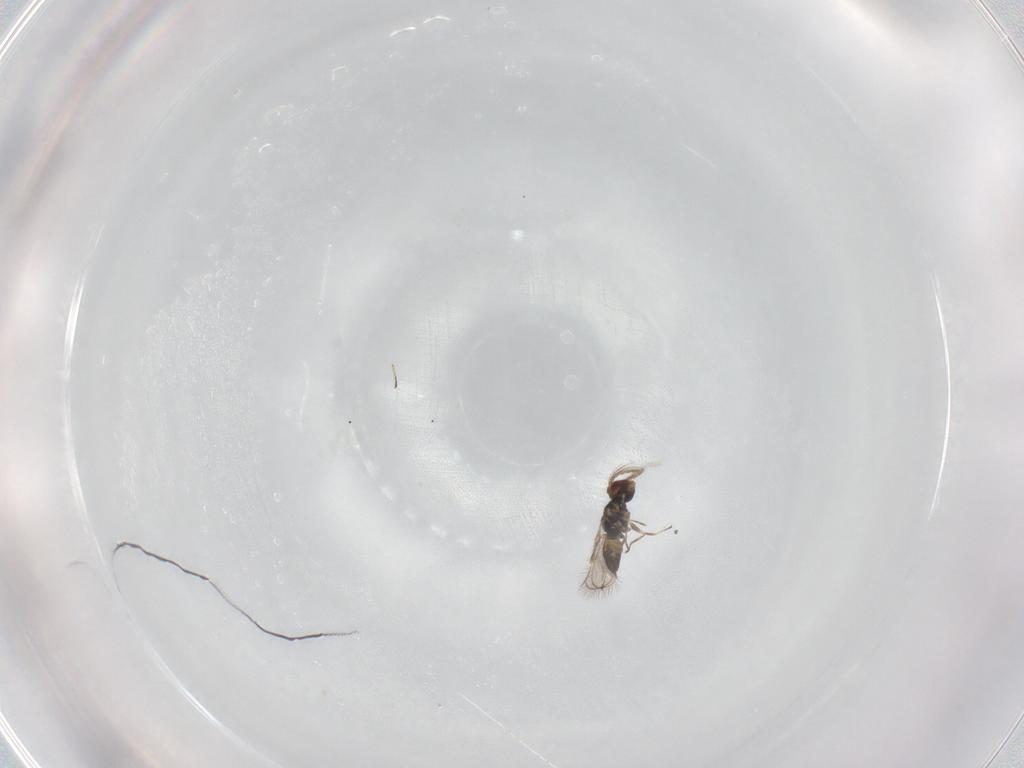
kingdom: Animalia
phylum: Arthropoda
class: Insecta
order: Hymenoptera
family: Eulophidae
